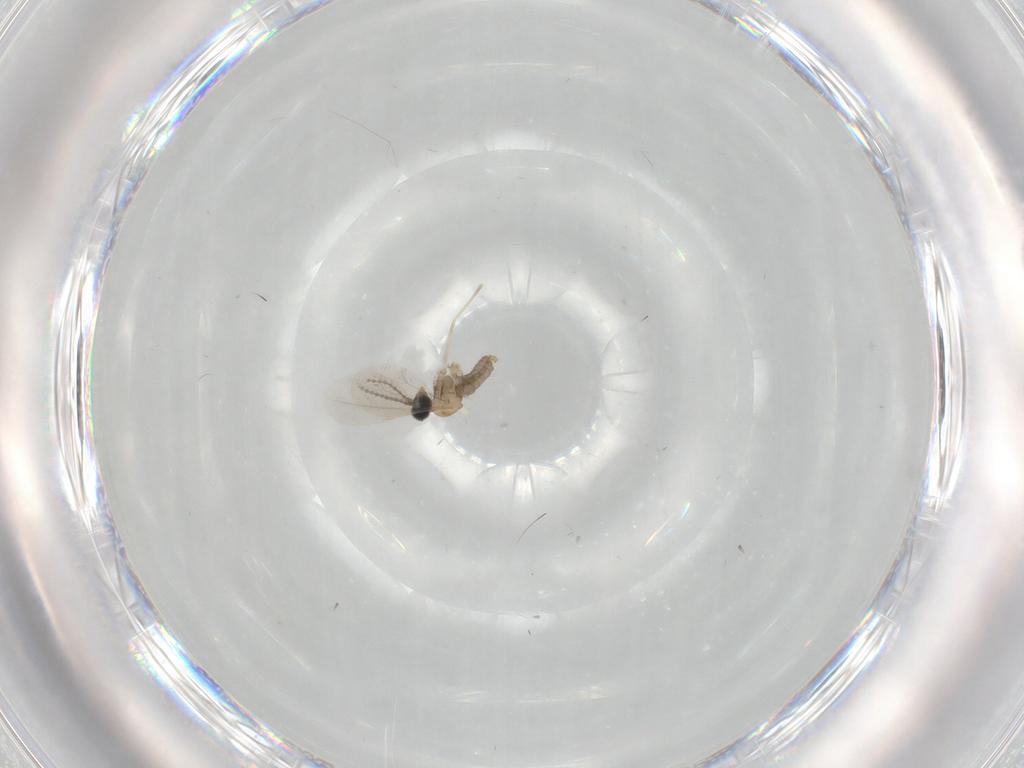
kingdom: Animalia
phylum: Arthropoda
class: Insecta
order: Diptera
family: Cecidomyiidae
